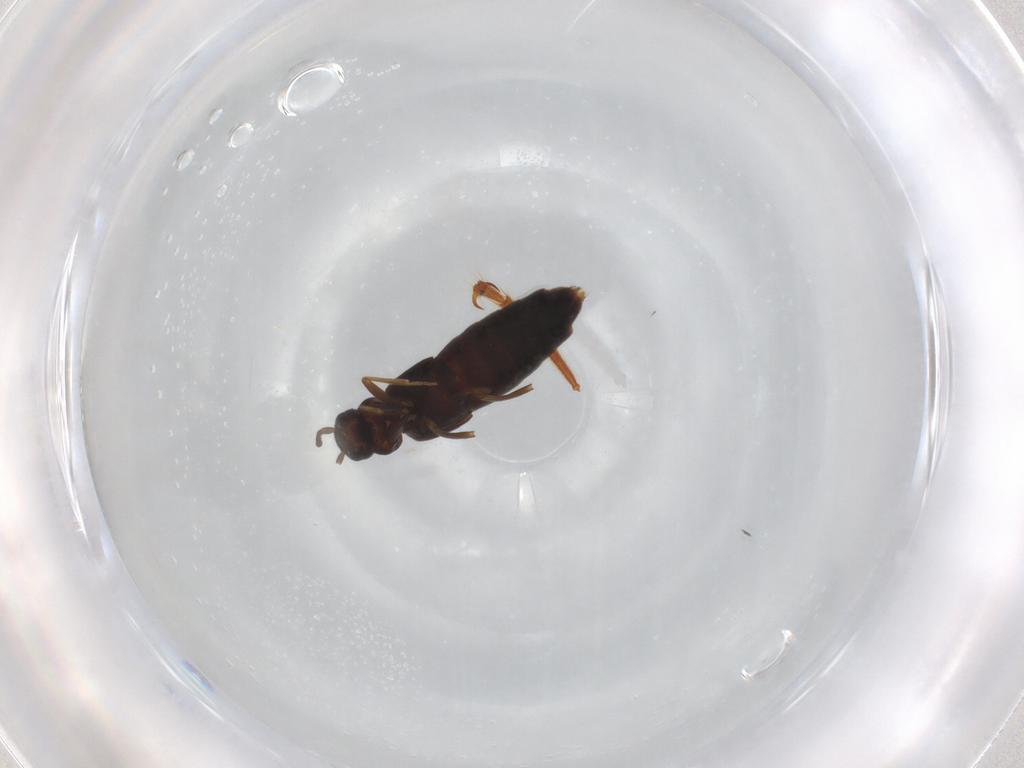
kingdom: Animalia
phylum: Arthropoda
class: Insecta
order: Coleoptera
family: Staphylinidae
